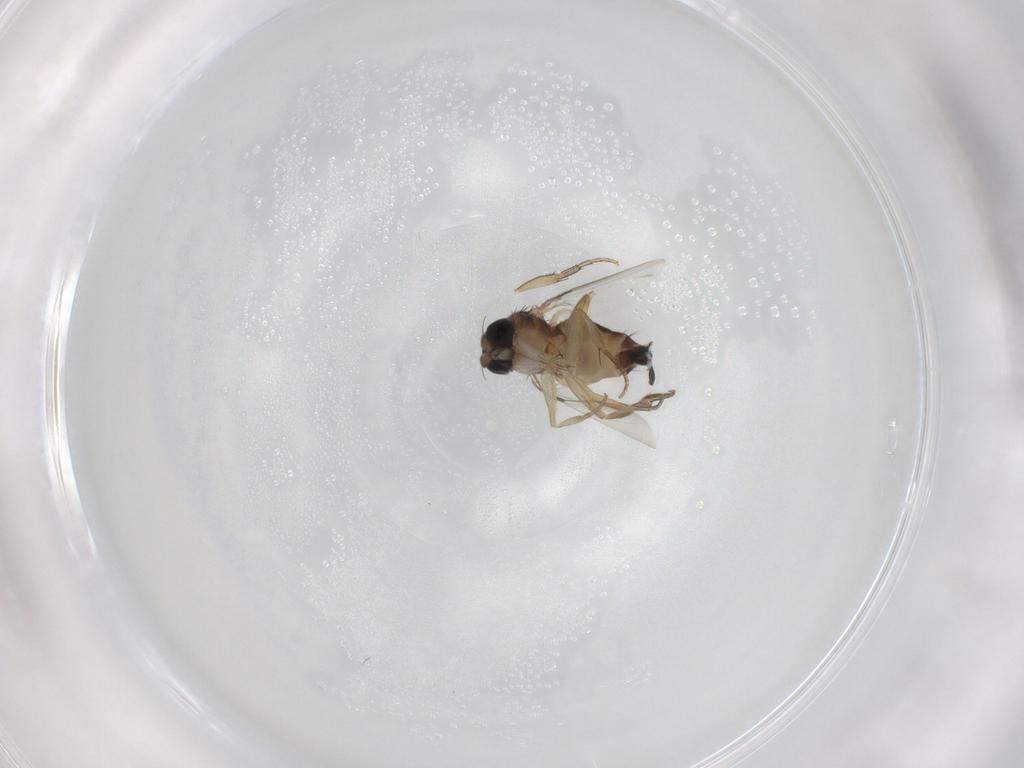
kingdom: Animalia
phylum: Arthropoda
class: Insecta
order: Diptera
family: Phoridae
